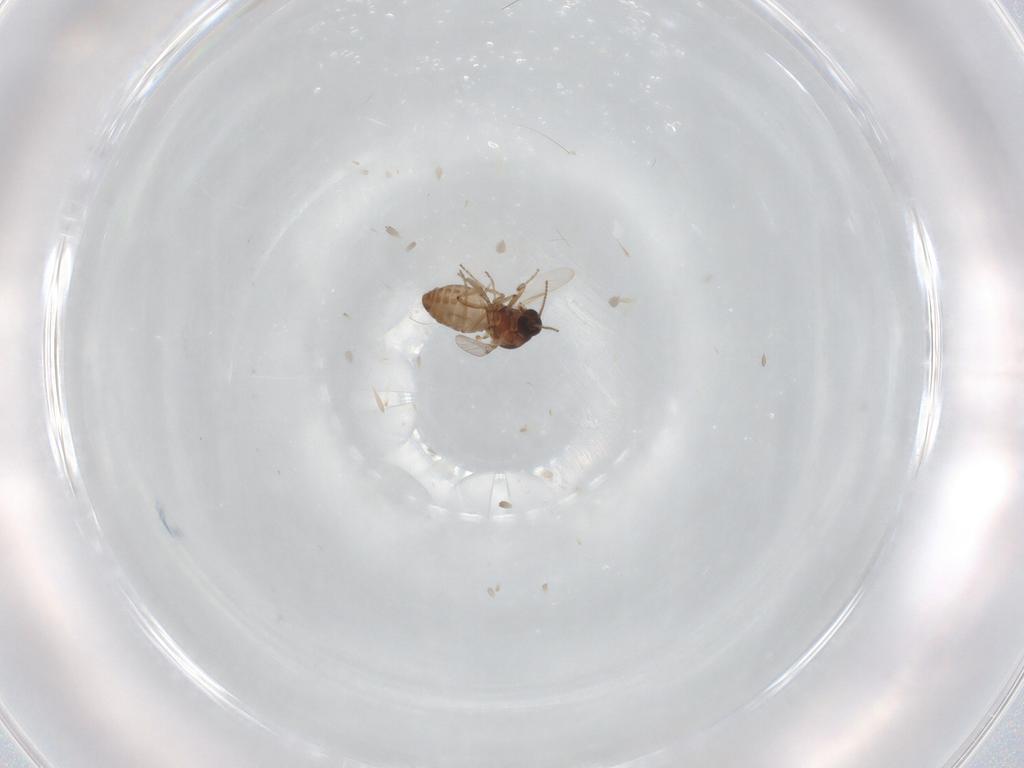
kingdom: Animalia
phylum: Arthropoda
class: Insecta
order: Diptera
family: Ceratopogonidae
